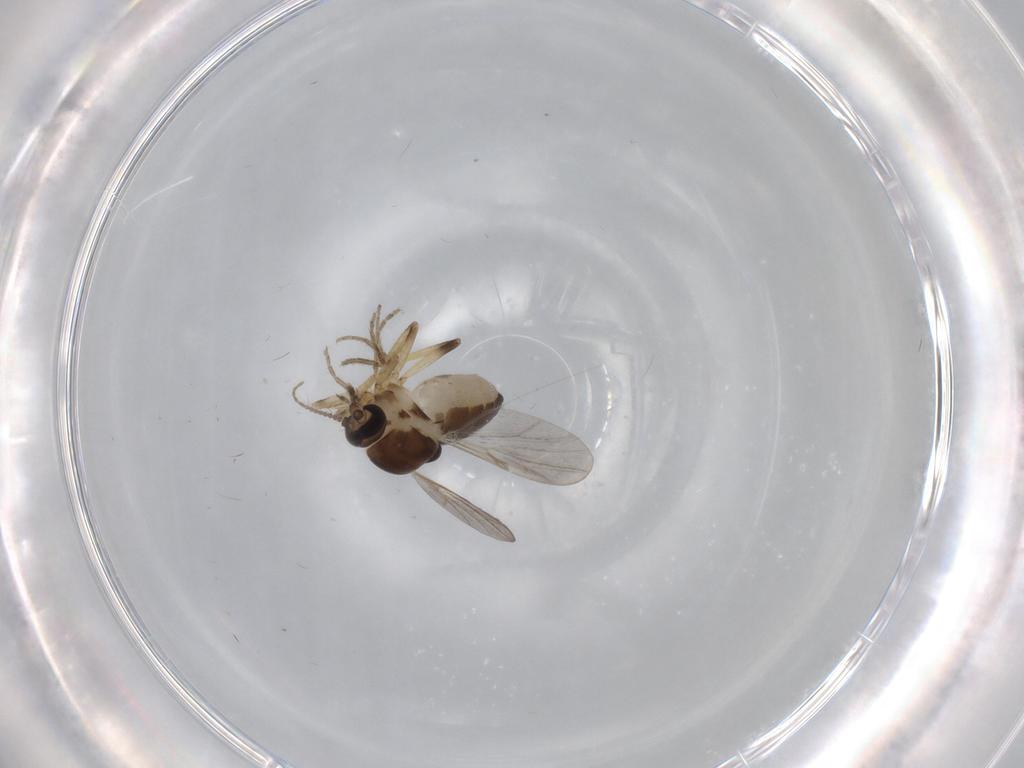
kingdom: Animalia
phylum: Arthropoda
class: Insecta
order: Diptera
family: Ceratopogonidae
